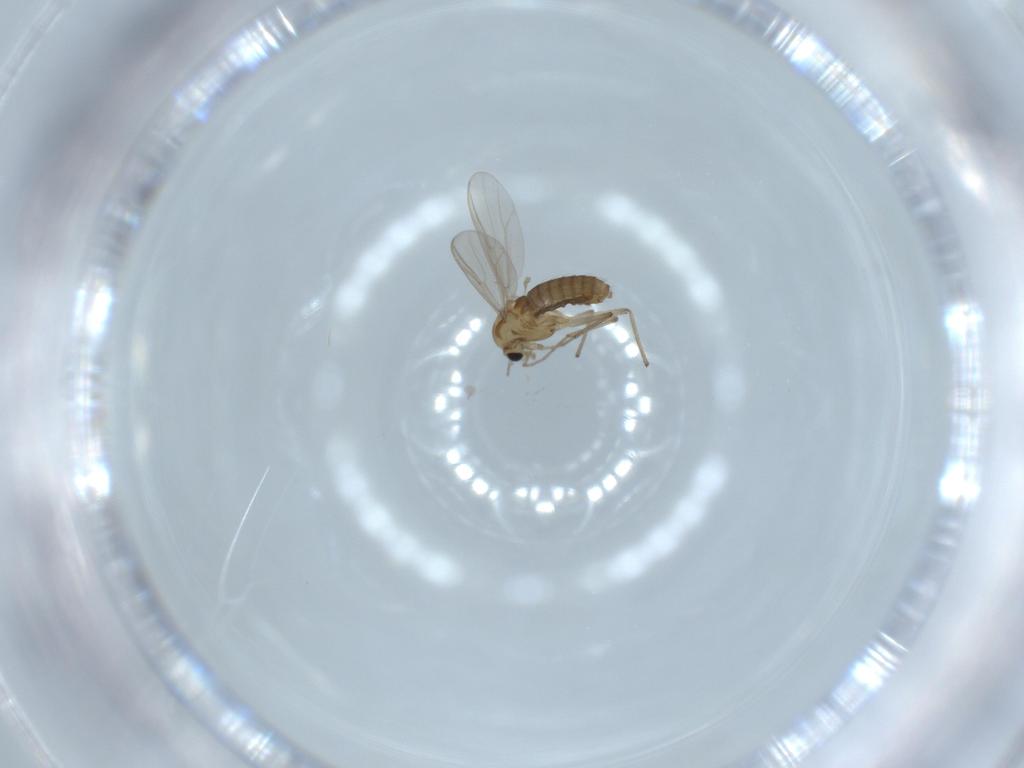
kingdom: Animalia
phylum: Arthropoda
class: Insecta
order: Diptera
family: Chironomidae
